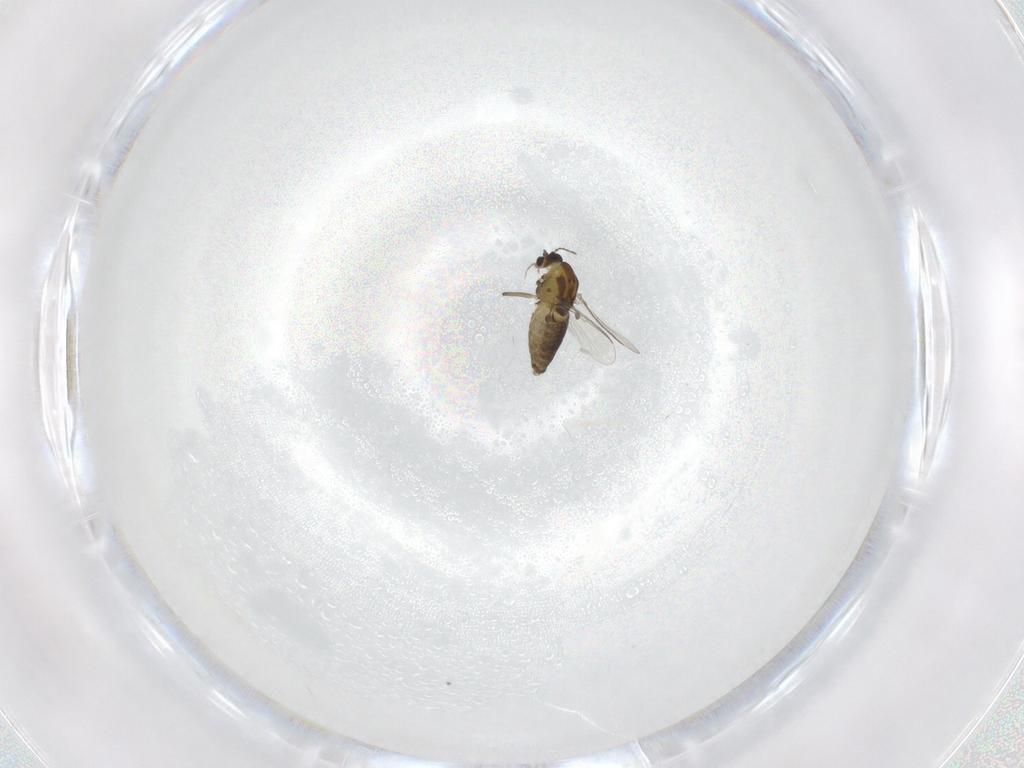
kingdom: Animalia
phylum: Arthropoda
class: Insecta
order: Diptera
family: Chironomidae
